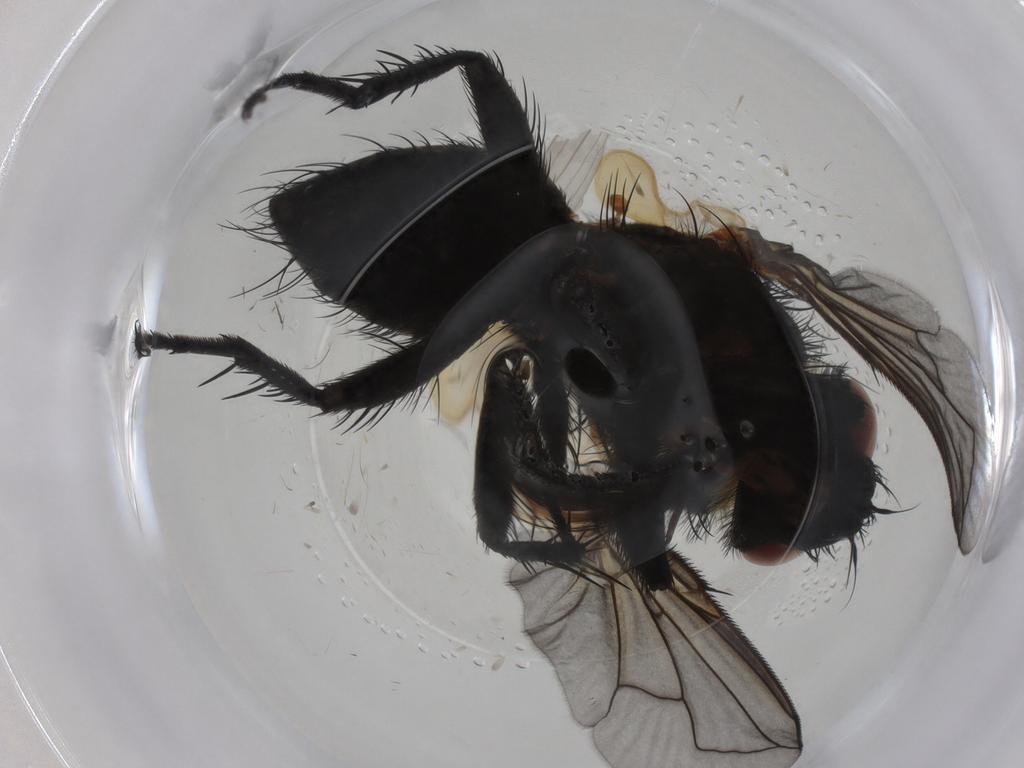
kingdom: Animalia
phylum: Arthropoda
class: Insecta
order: Diptera
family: Tachinidae
